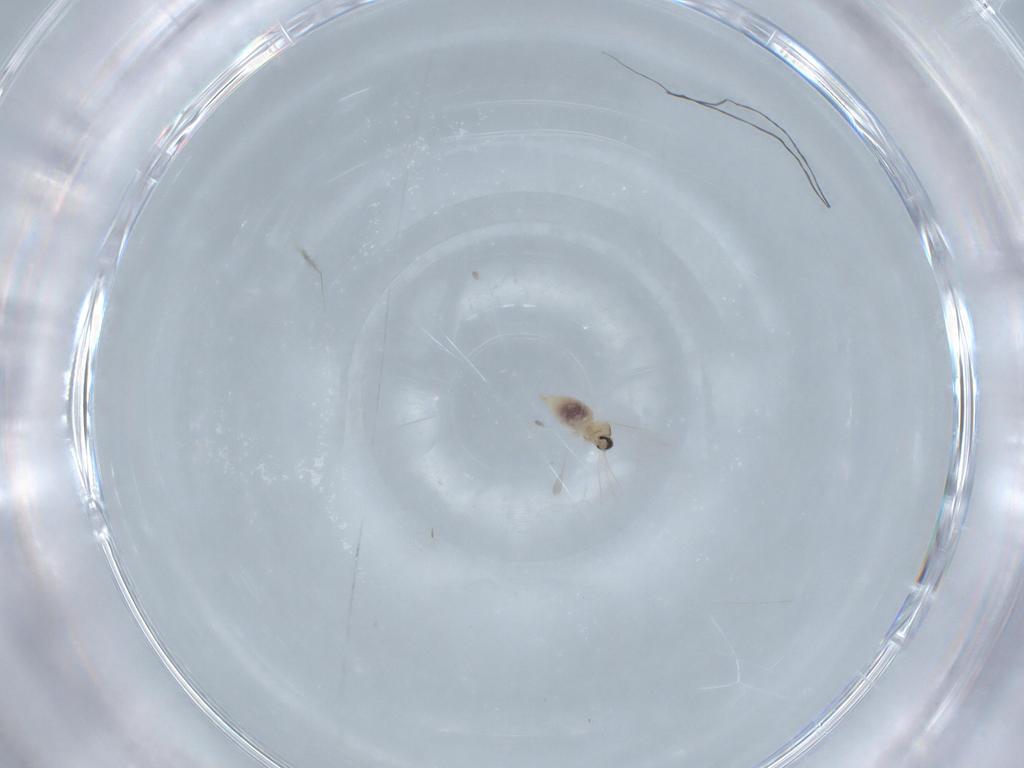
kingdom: Animalia
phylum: Arthropoda
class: Insecta
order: Diptera
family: Cecidomyiidae
